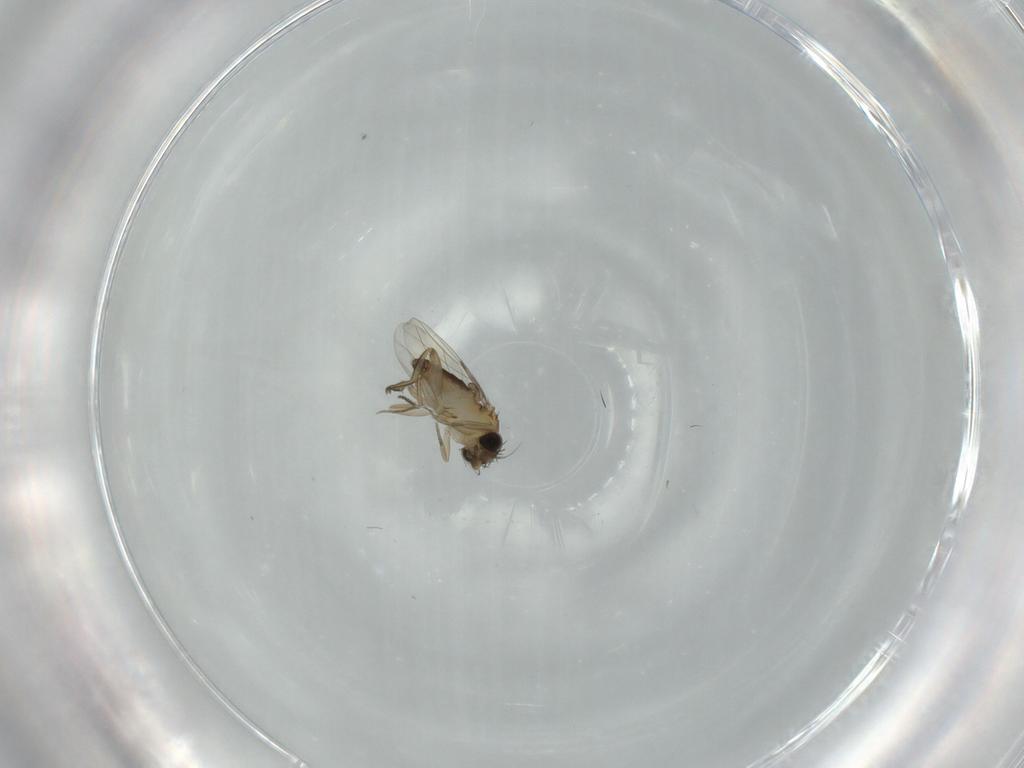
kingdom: Animalia
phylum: Arthropoda
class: Insecta
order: Diptera
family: Phoridae
